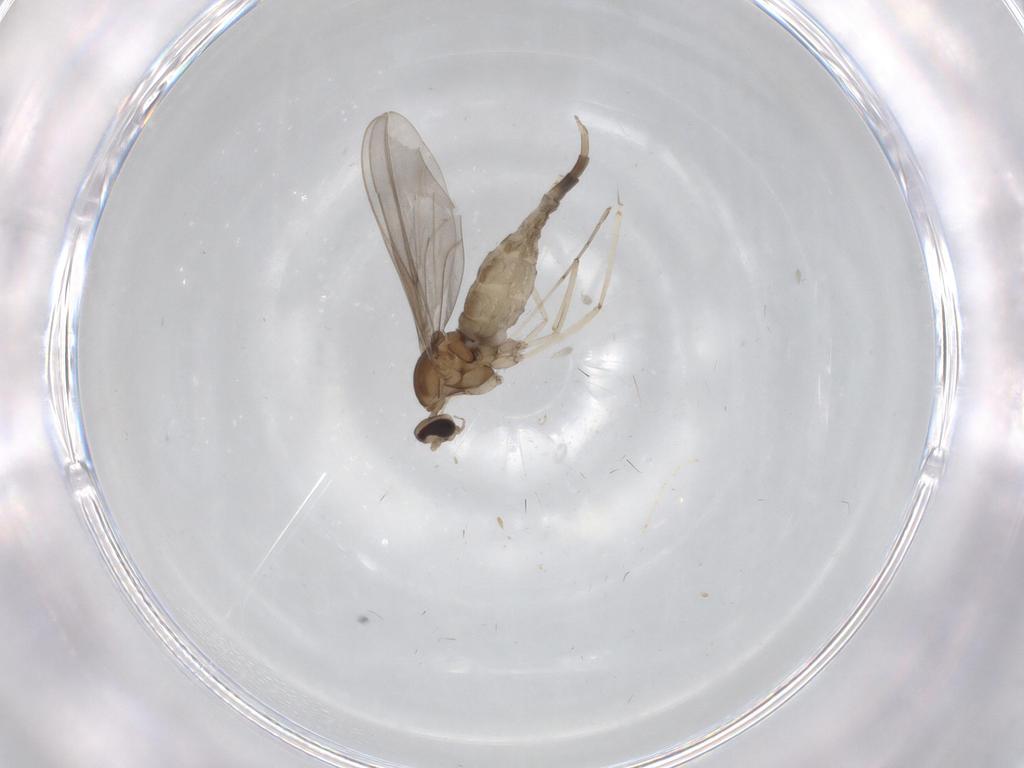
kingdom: Animalia
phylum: Arthropoda
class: Insecta
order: Diptera
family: Cecidomyiidae
